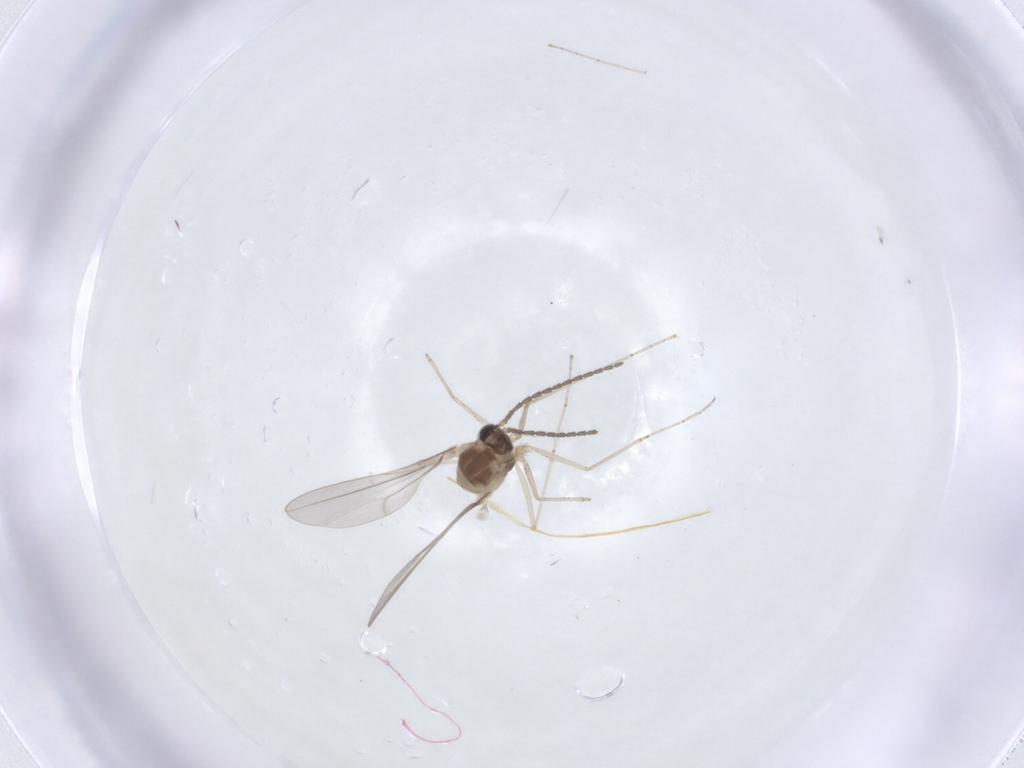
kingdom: Animalia
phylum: Arthropoda
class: Insecta
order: Diptera
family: Cecidomyiidae
